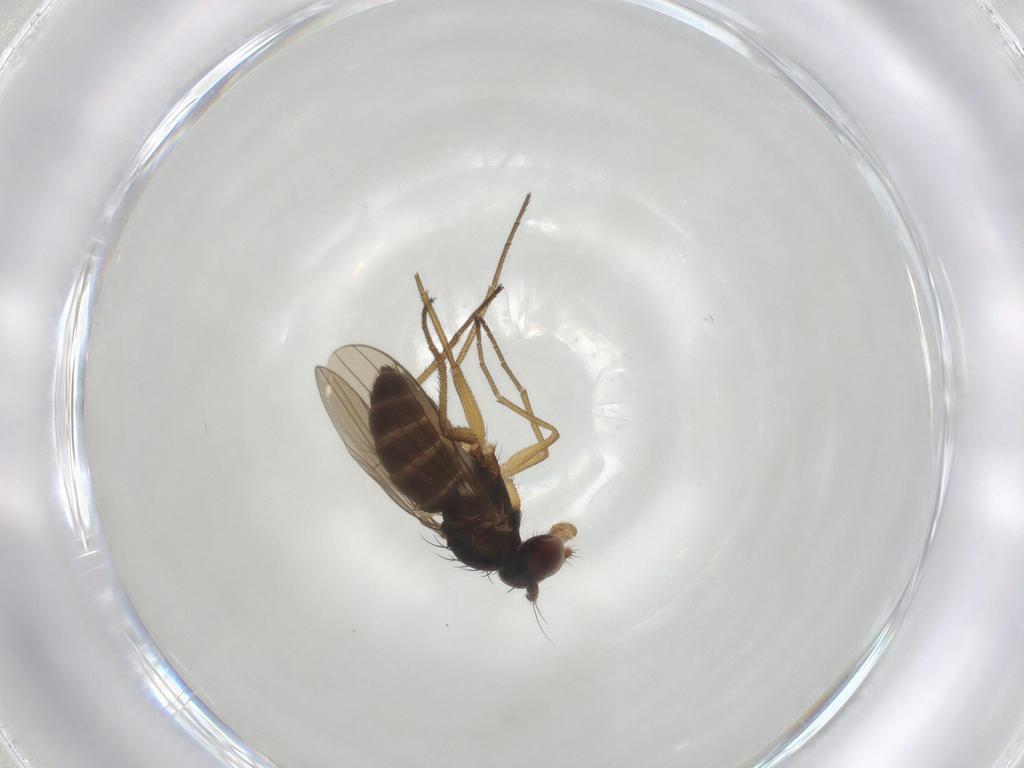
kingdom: Animalia
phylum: Arthropoda
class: Insecta
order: Diptera
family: Dolichopodidae
